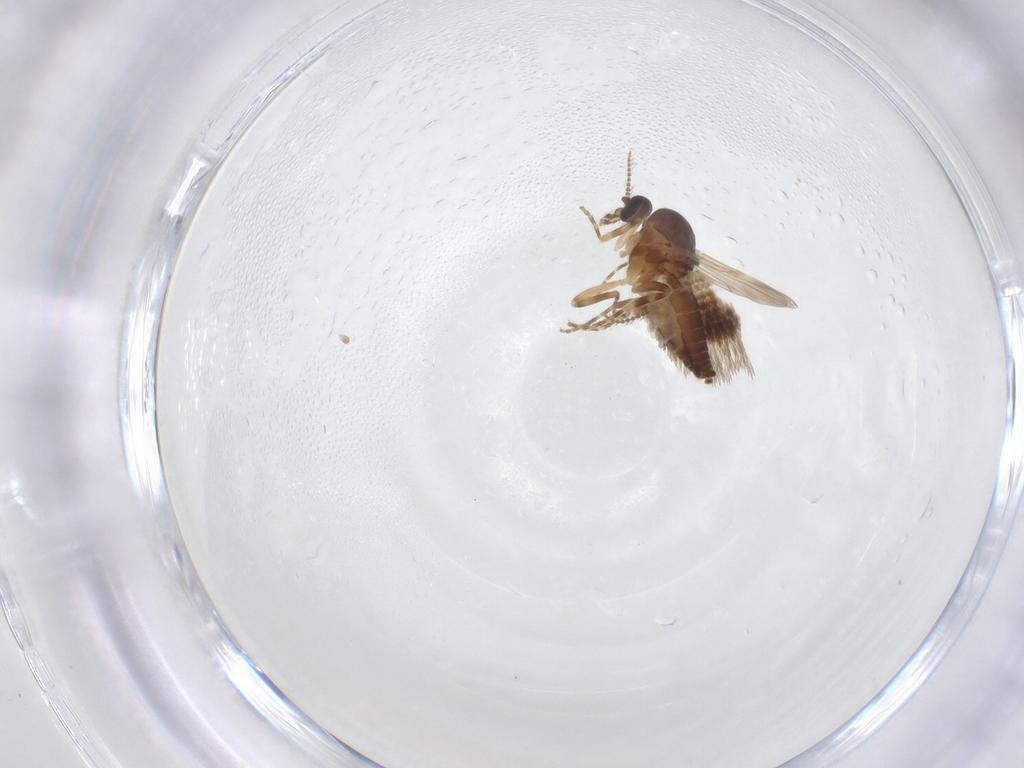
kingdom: Animalia
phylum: Arthropoda
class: Insecta
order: Diptera
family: Ceratopogonidae
